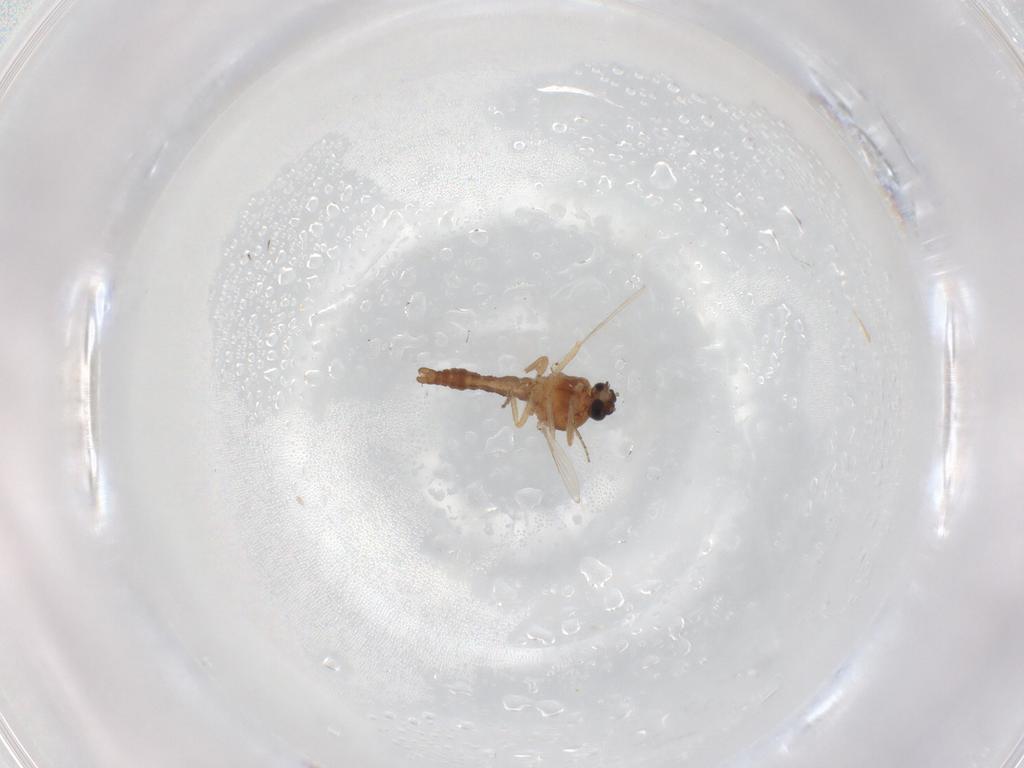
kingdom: Animalia
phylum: Arthropoda
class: Insecta
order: Diptera
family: Ceratopogonidae
